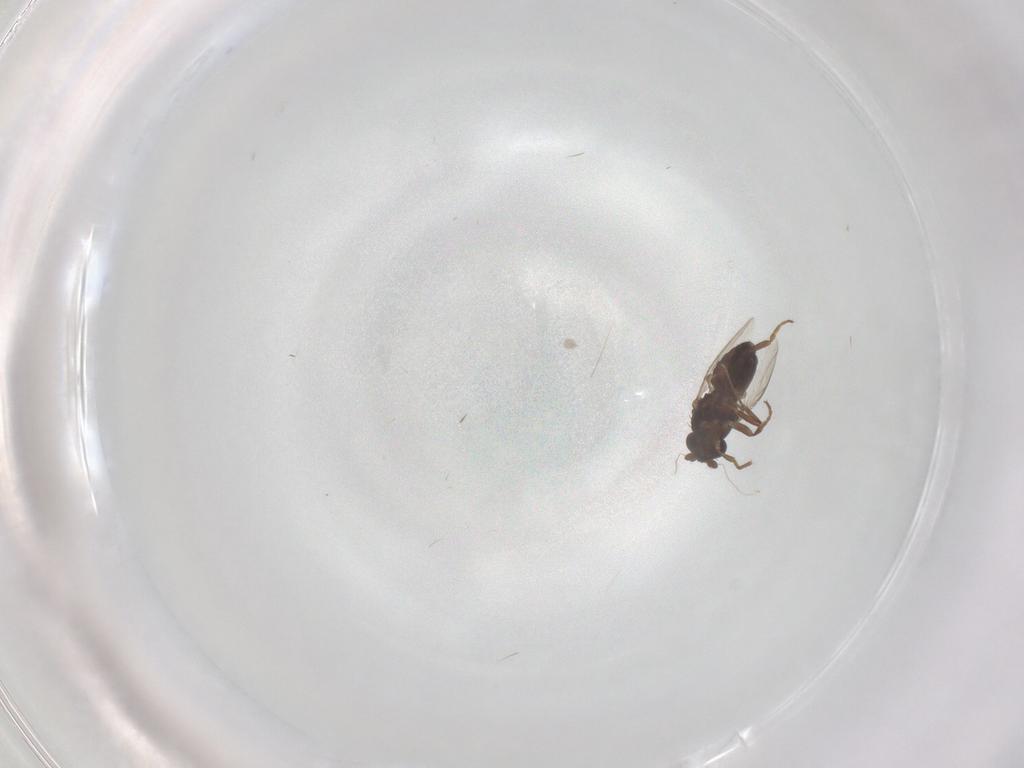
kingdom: Animalia
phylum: Arthropoda
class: Insecta
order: Diptera
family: Sphaeroceridae
